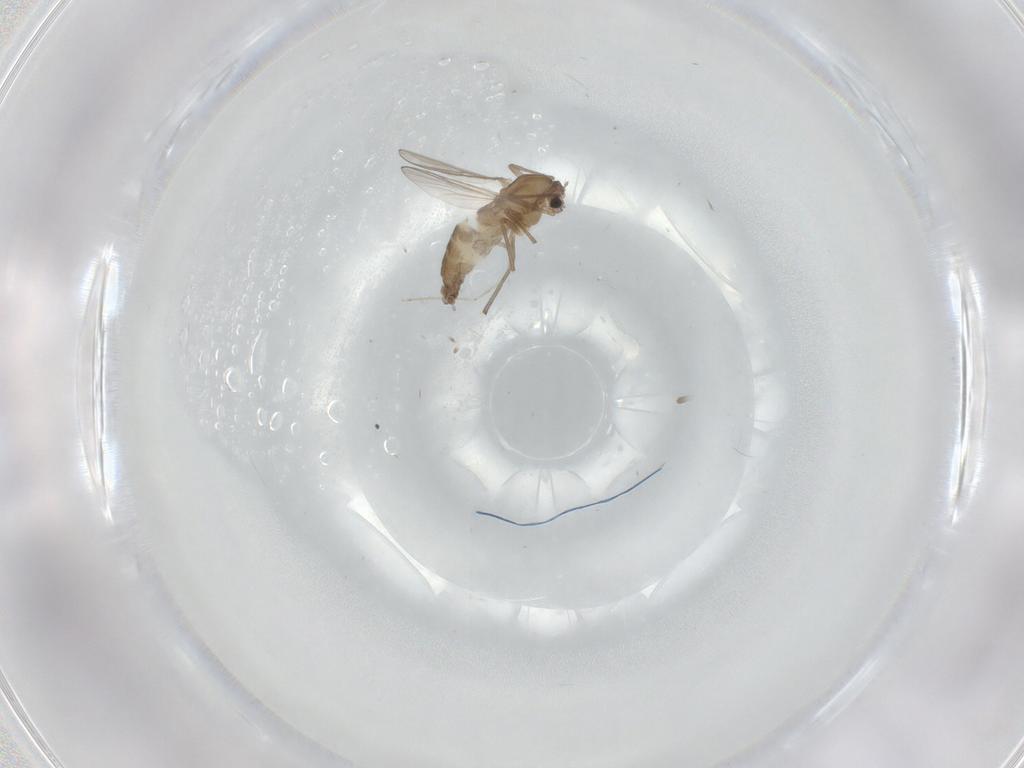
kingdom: Animalia
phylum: Arthropoda
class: Insecta
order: Diptera
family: Chironomidae
